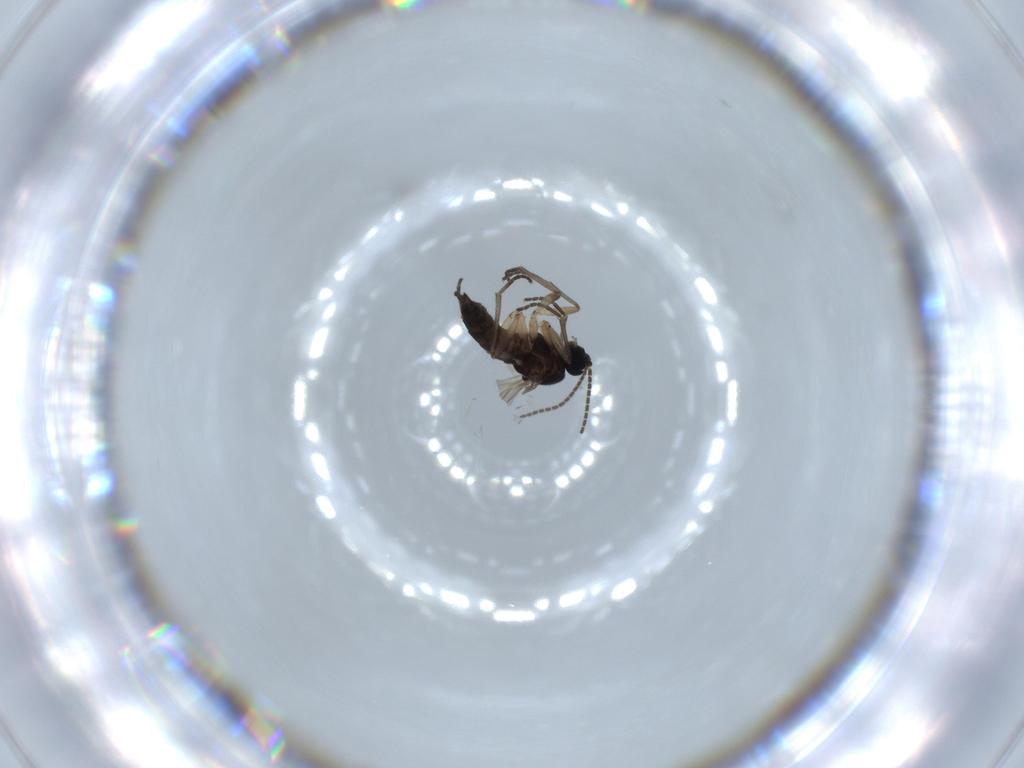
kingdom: Animalia
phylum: Arthropoda
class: Insecta
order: Diptera
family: Sciaridae
